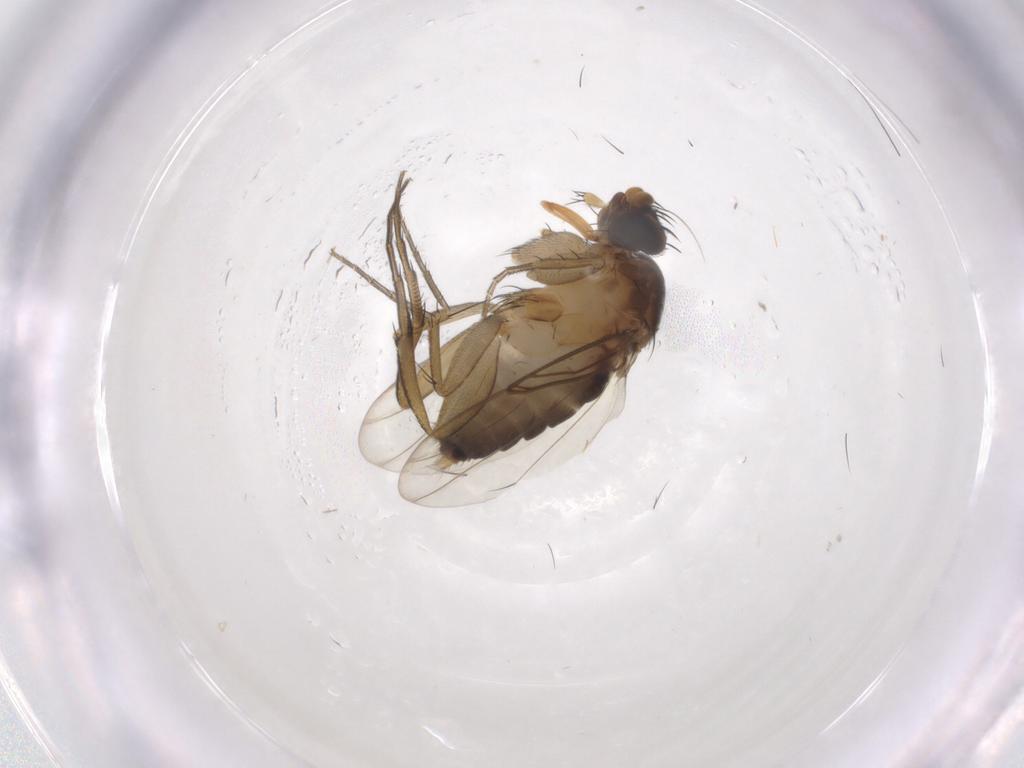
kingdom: Animalia
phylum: Arthropoda
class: Insecta
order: Diptera
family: Phoridae
